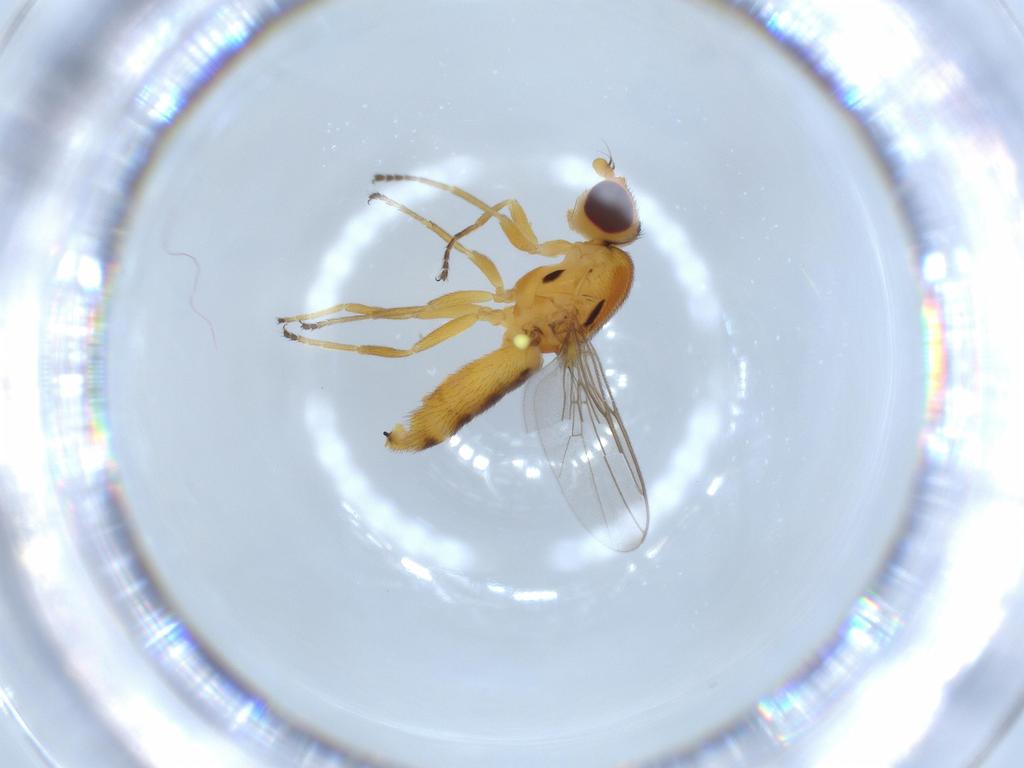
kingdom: Animalia
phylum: Arthropoda
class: Insecta
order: Diptera
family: Chloropidae
